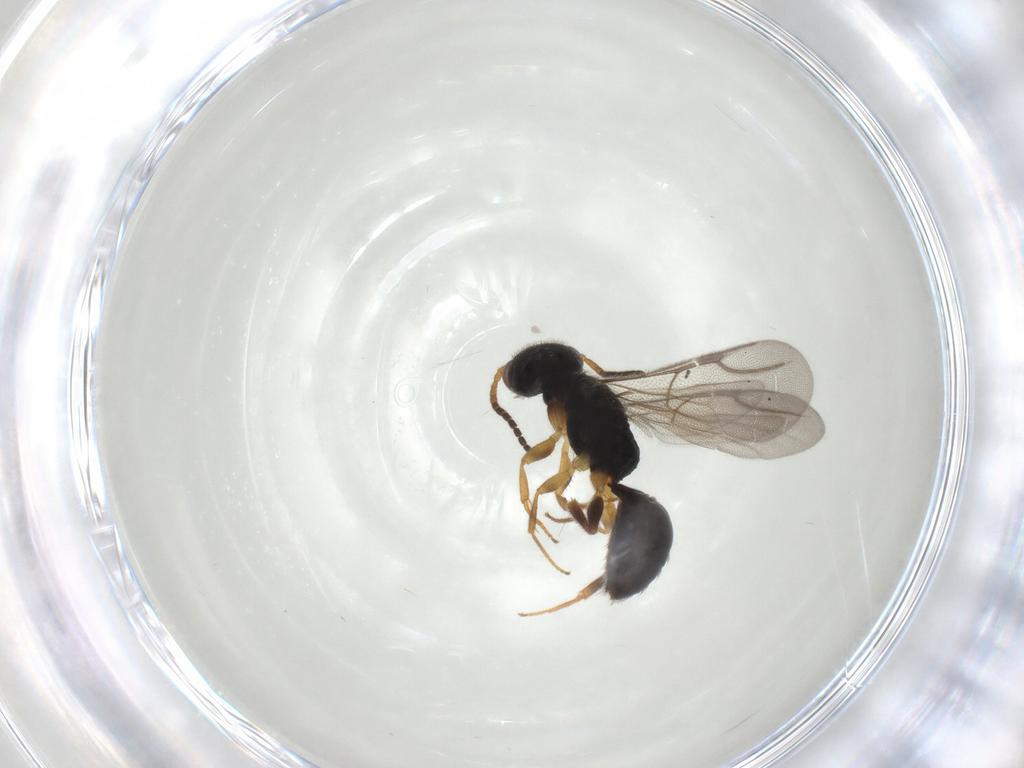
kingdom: Animalia
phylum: Arthropoda
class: Insecta
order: Hymenoptera
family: Bethylidae
